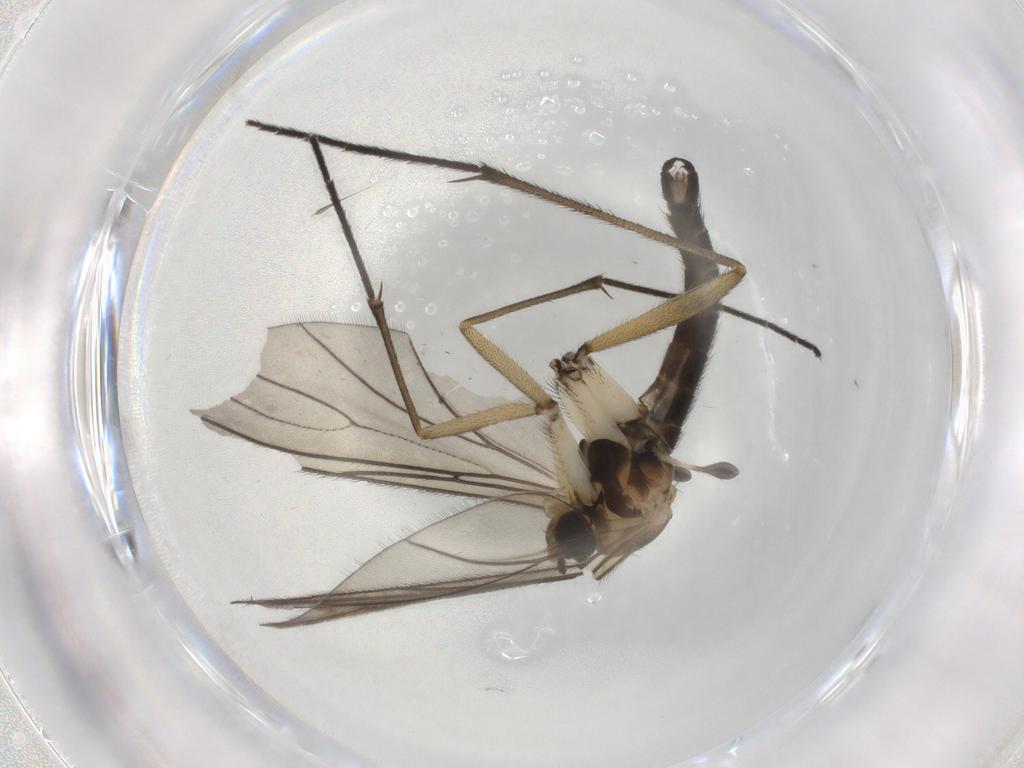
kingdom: Animalia
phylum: Arthropoda
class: Insecta
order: Diptera
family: Sciaridae
